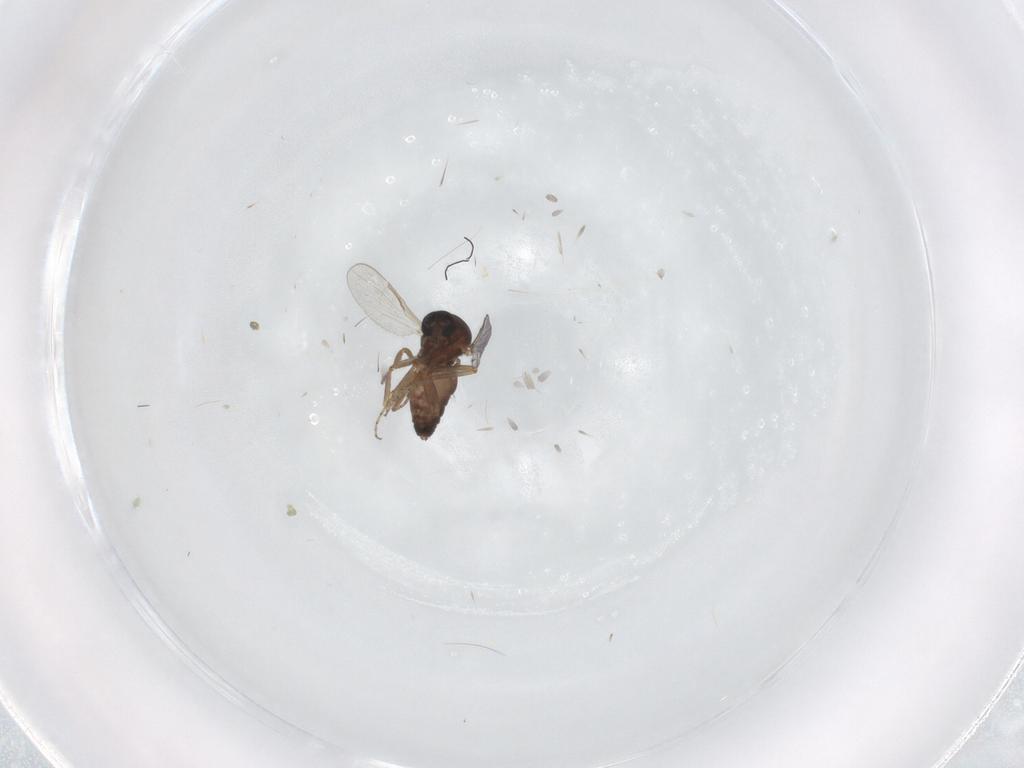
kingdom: Animalia
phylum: Arthropoda
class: Insecta
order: Diptera
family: Ceratopogonidae
